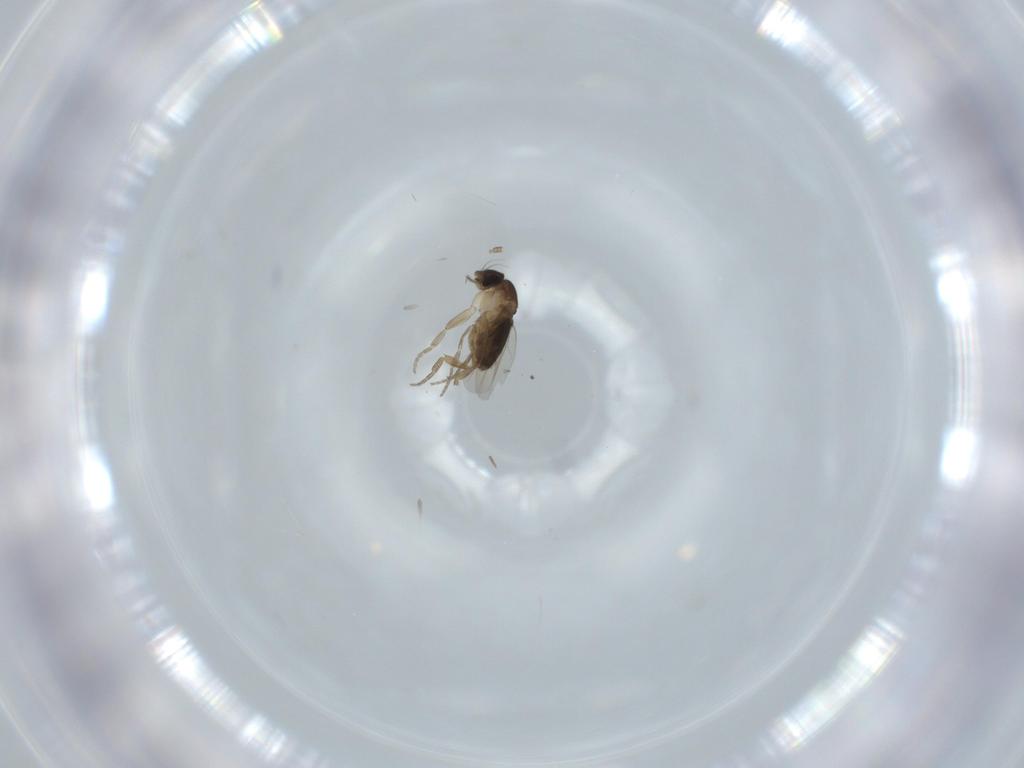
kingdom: Animalia
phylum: Arthropoda
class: Insecta
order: Diptera
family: Phoridae
